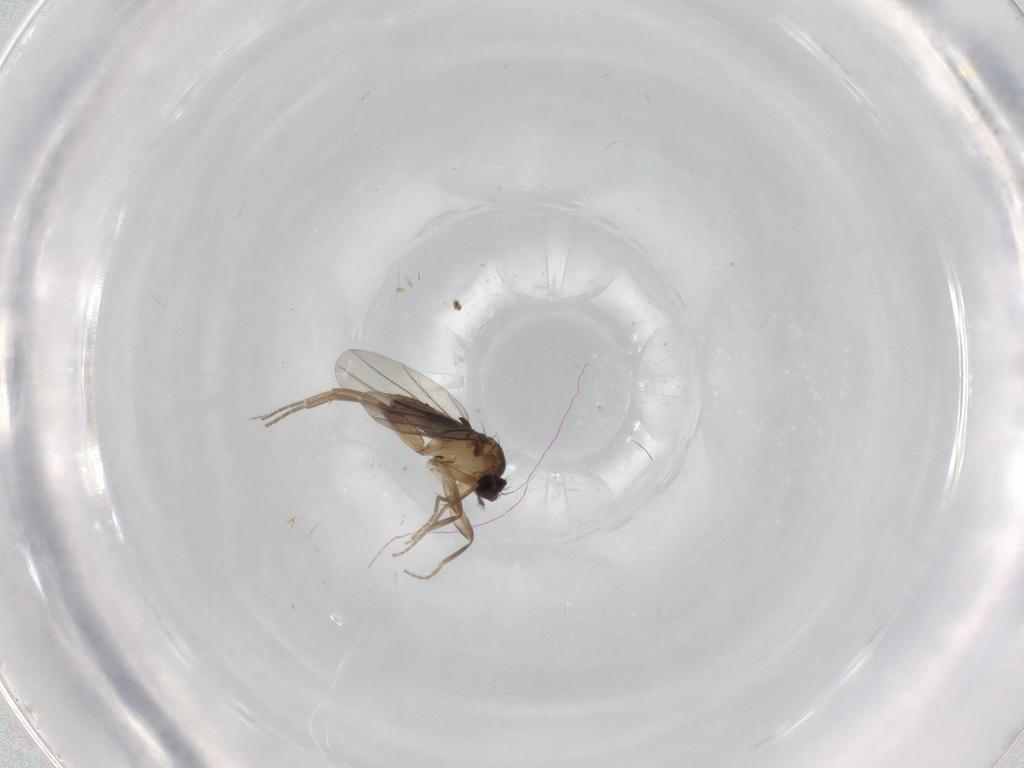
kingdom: Animalia
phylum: Arthropoda
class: Insecta
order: Diptera
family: Phoridae
